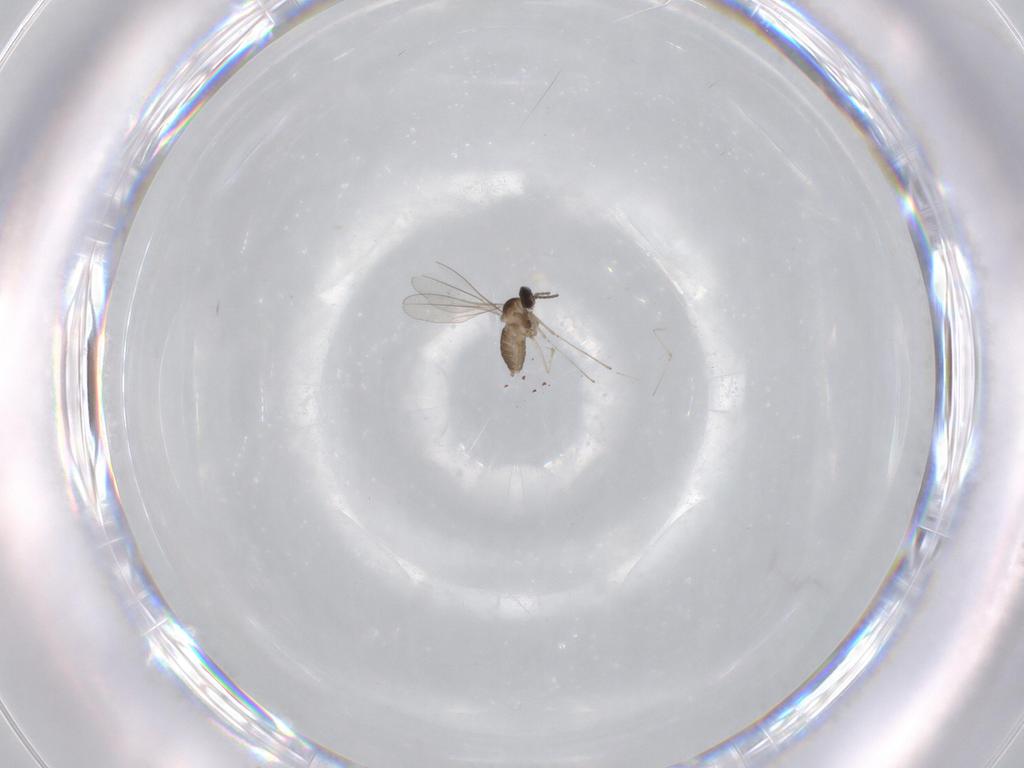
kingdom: Animalia
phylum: Arthropoda
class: Insecta
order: Diptera
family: Cecidomyiidae
